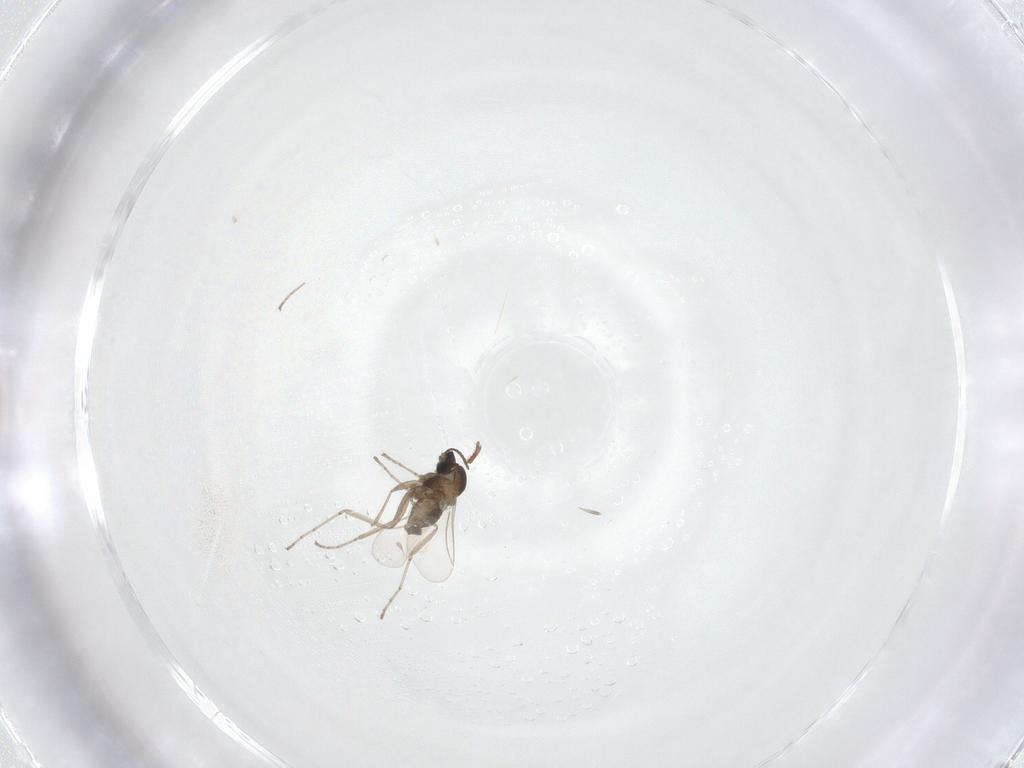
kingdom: Animalia
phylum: Arthropoda
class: Insecta
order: Diptera
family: Cecidomyiidae
